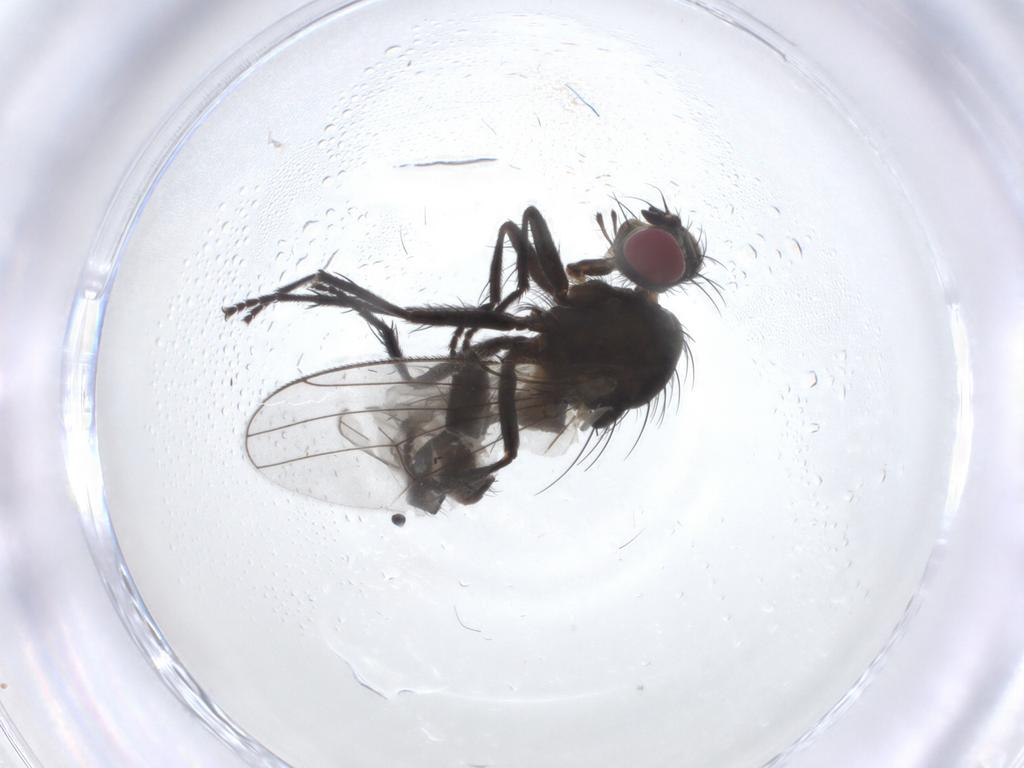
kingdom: Animalia
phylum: Arthropoda
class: Insecta
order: Diptera
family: Muscidae
